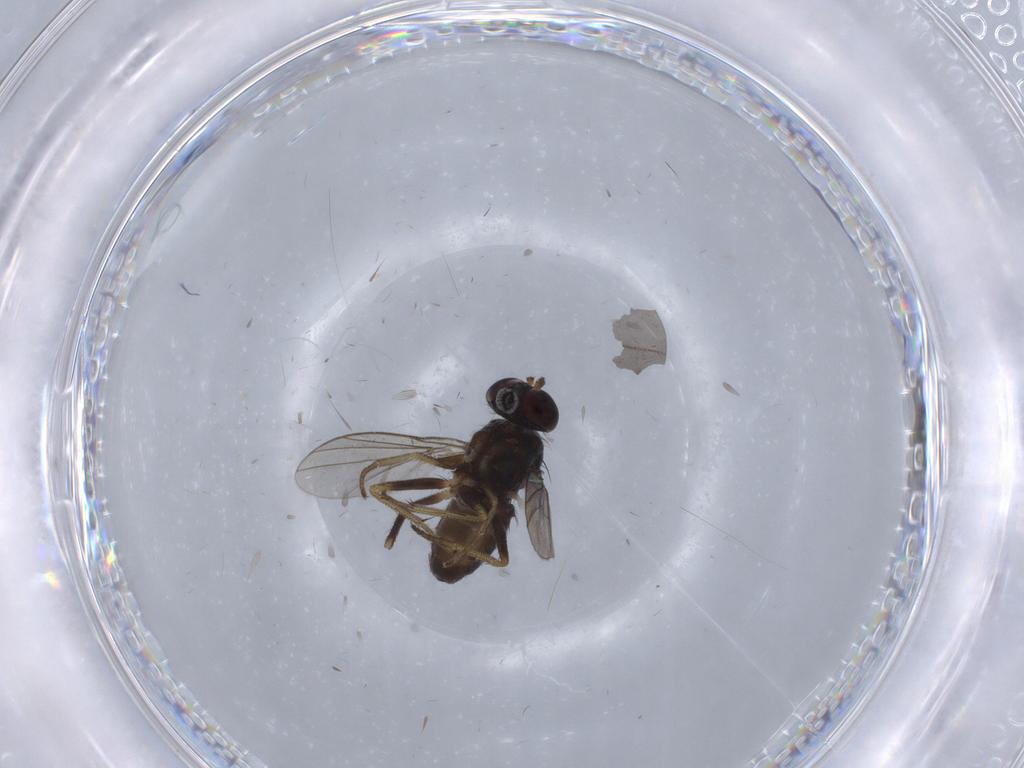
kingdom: Animalia
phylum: Arthropoda
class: Insecta
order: Diptera
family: Dolichopodidae
